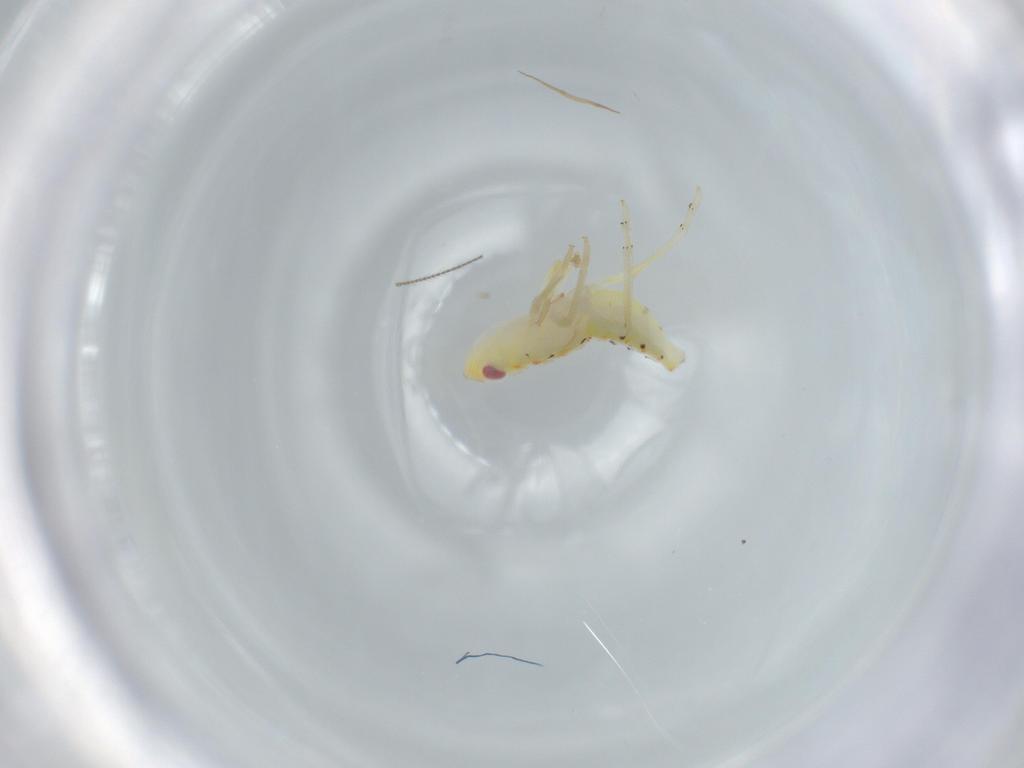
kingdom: Animalia
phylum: Arthropoda
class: Insecta
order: Hemiptera
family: Tropiduchidae
